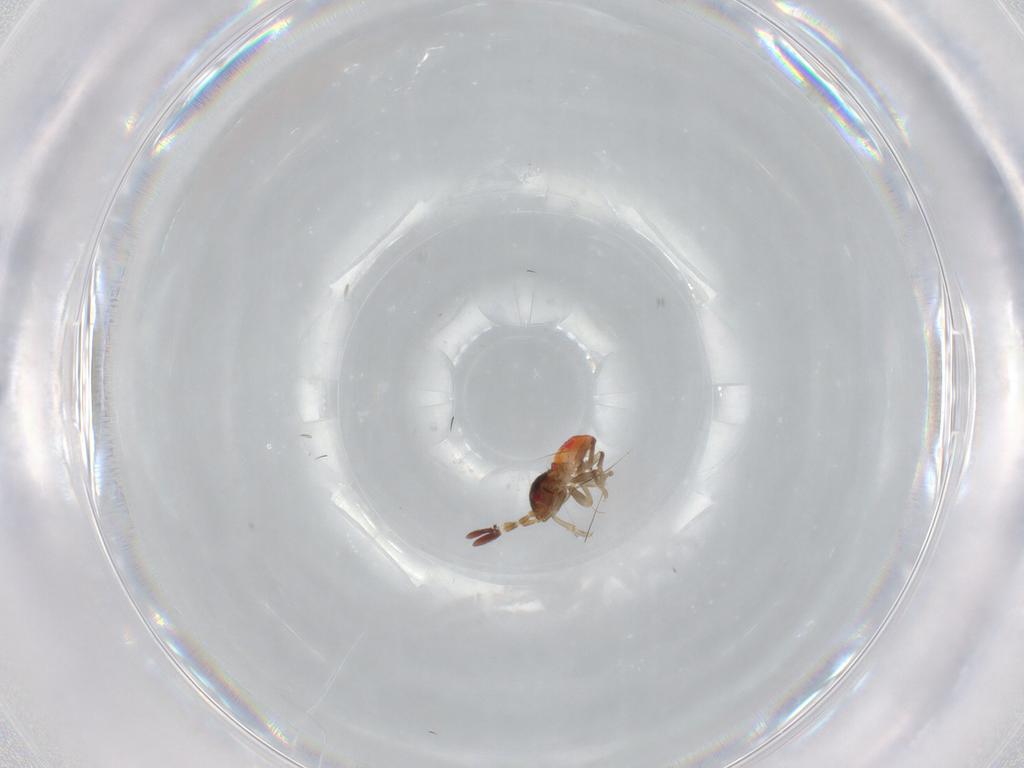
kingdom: Animalia
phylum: Arthropoda
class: Insecta
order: Hemiptera
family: Rhyparochromidae
